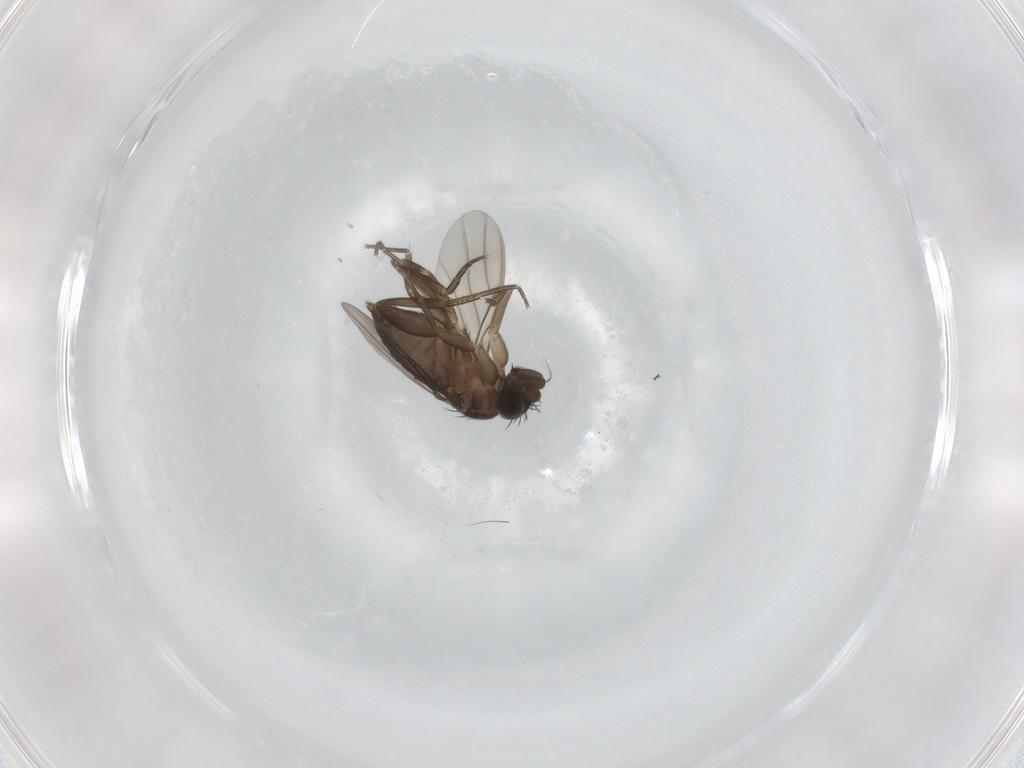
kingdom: Animalia
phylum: Arthropoda
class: Insecta
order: Diptera
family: Phoridae
